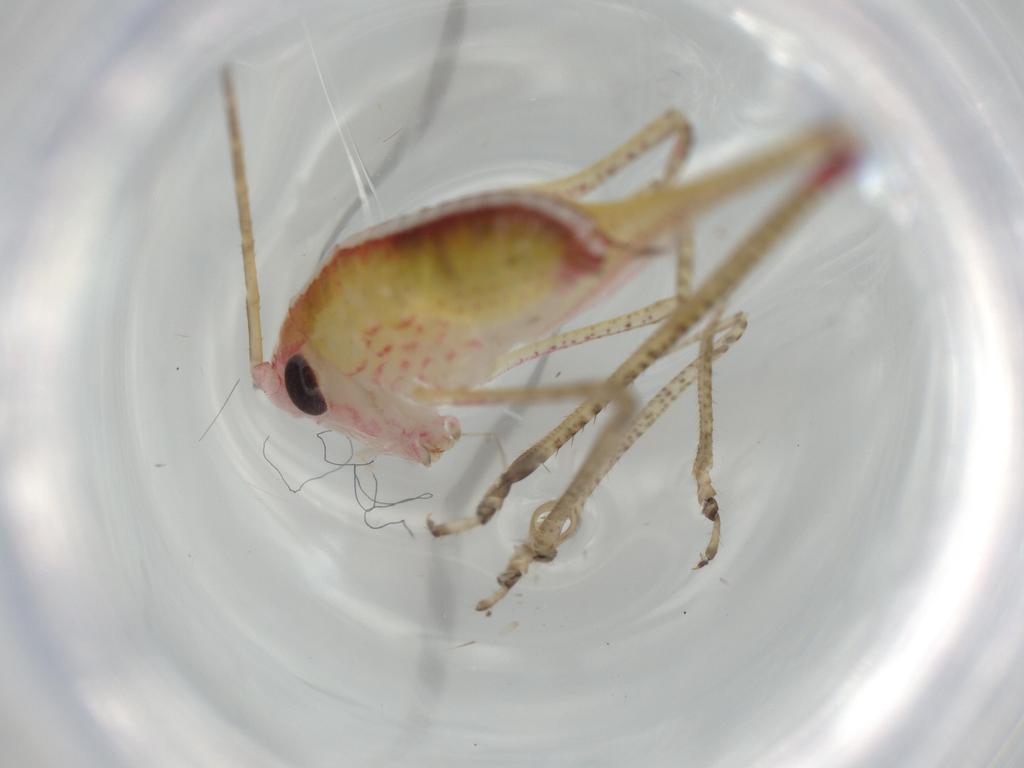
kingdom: Animalia
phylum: Arthropoda
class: Insecta
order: Orthoptera
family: Tettigoniidae
